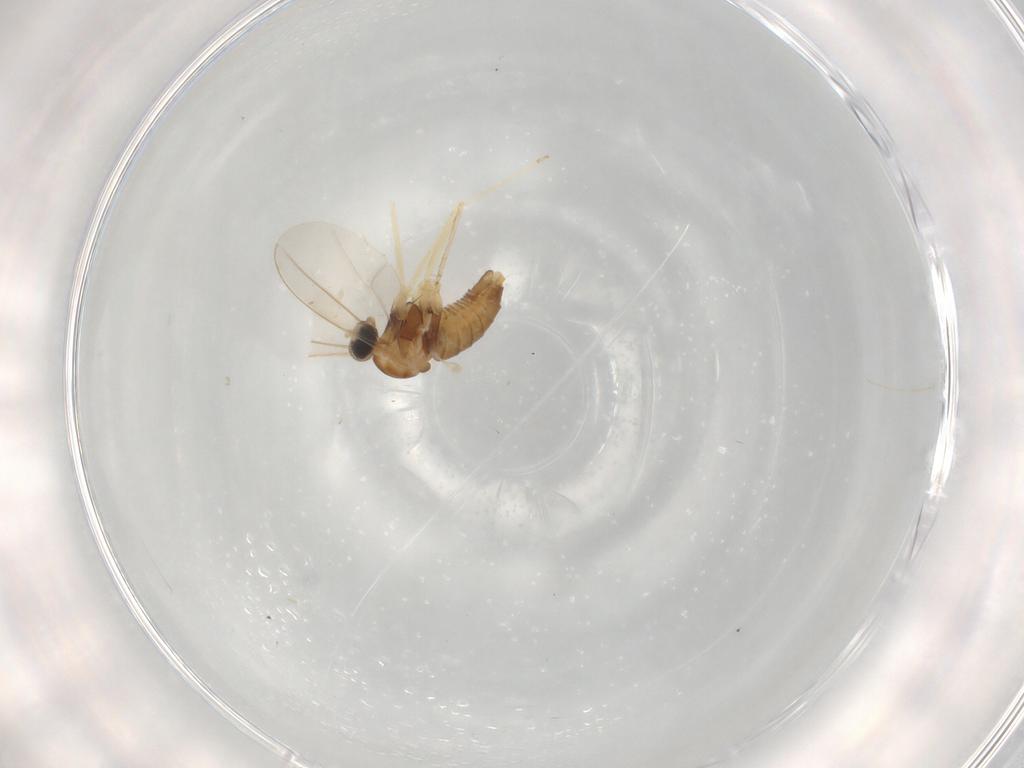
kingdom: Animalia
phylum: Arthropoda
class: Insecta
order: Diptera
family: Cecidomyiidae
